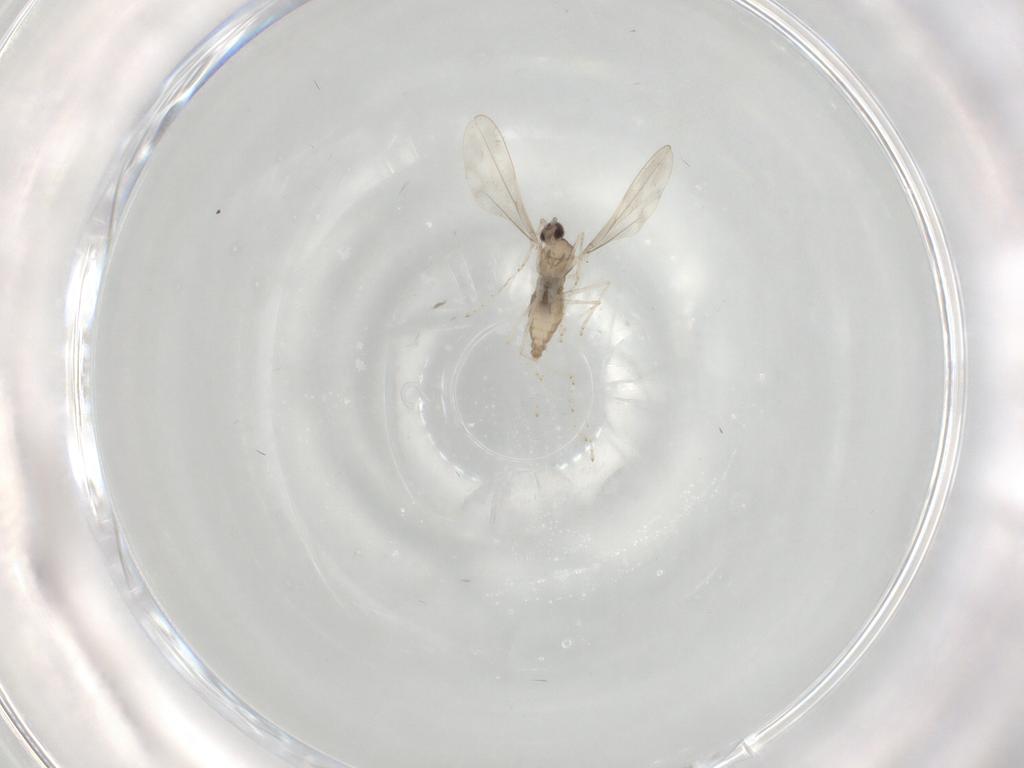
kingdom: Animalia
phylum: Arthropoda
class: Insecta
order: Diptera
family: Cecidomyiidae
